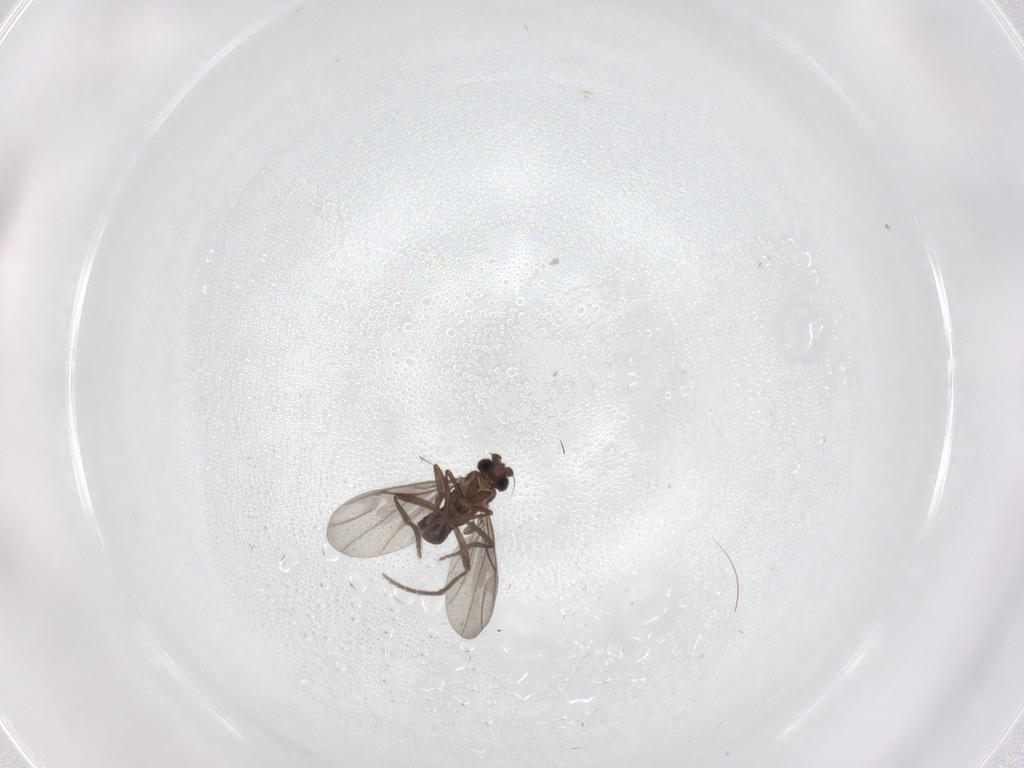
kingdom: Animalia
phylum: Arthropoda
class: Insecta
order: Diptera
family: Phoridae
